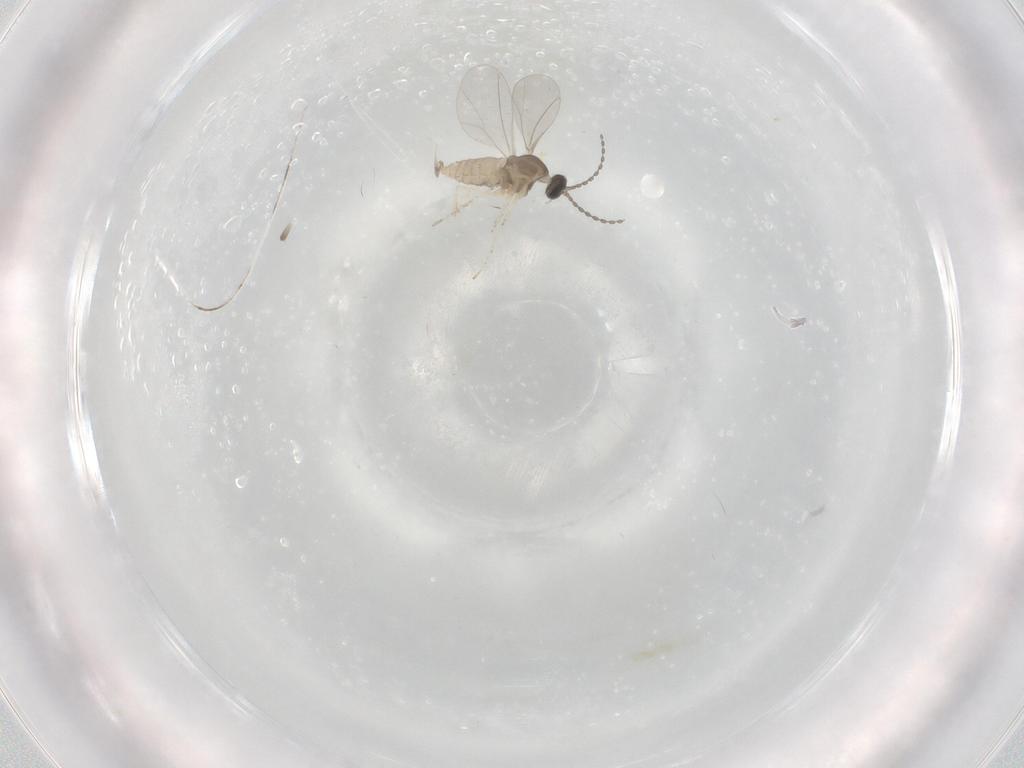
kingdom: Animalia
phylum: Arthropoda
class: Insecta
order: Diptera
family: Cecidomyiidae
